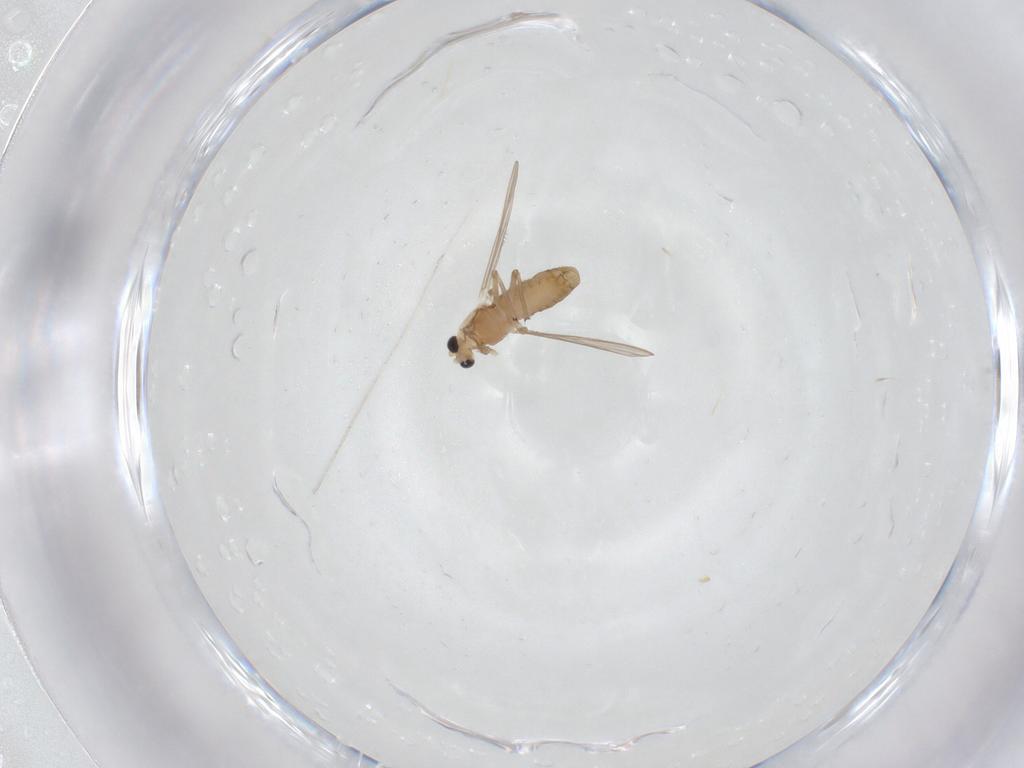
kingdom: Animalia
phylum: Arthropoda
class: Insecta
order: Diptera
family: Chironomidae
